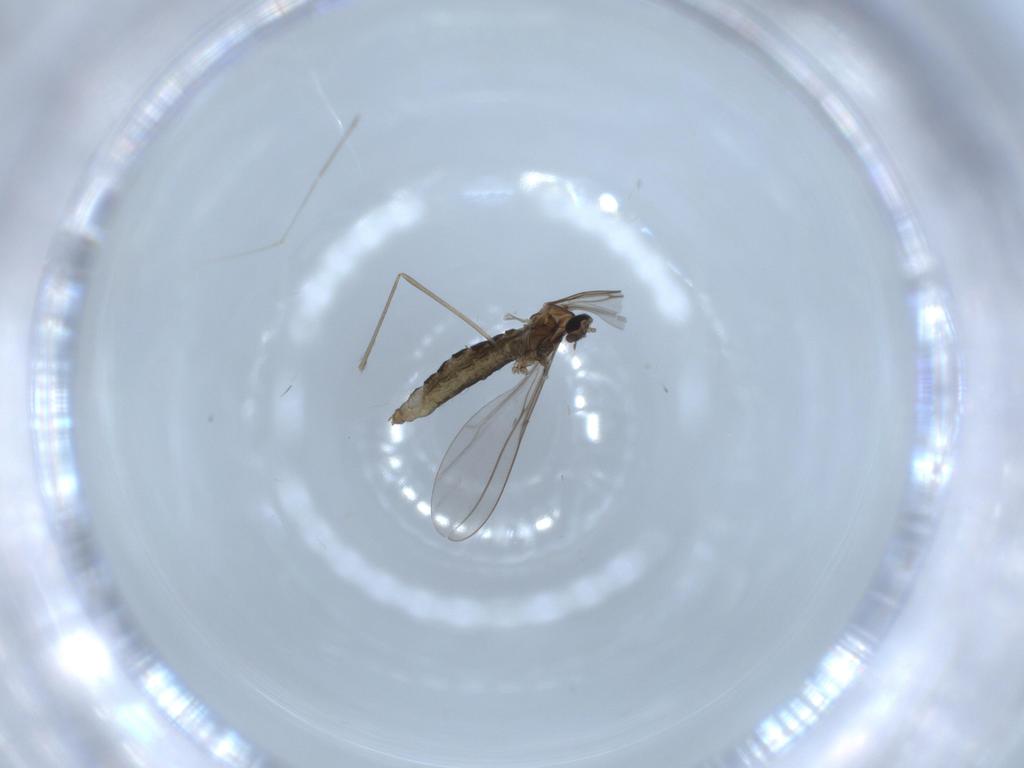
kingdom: Animalia
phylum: Arthropoda
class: Insecta
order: Diptera
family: Cecidomyiidae
